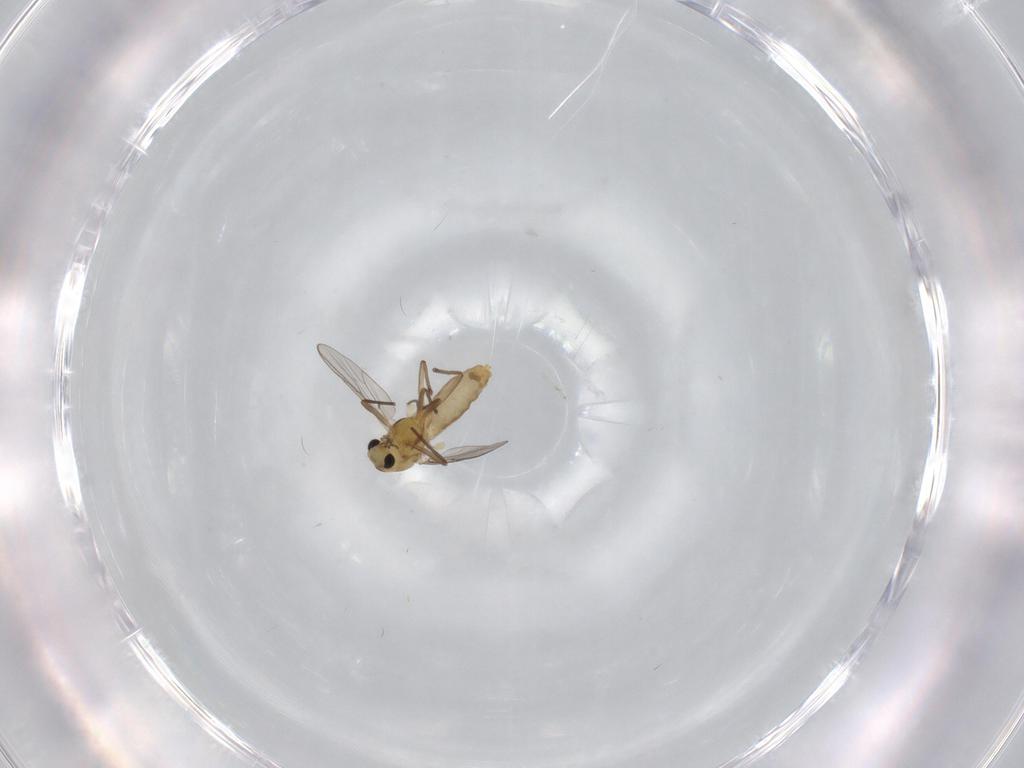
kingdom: Animalia
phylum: Arthropoda
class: Insecta
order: Diptera
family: Chironomidae
